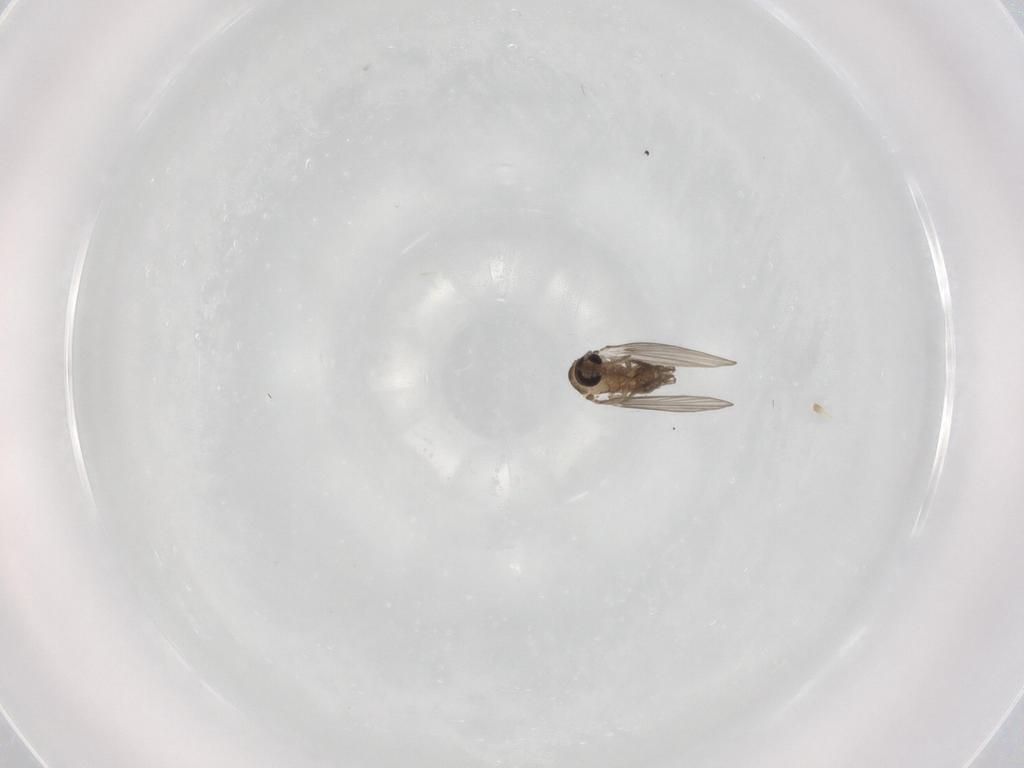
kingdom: Animalia
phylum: Arthropoda
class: Insecta
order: Diptera
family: Psychodidae
